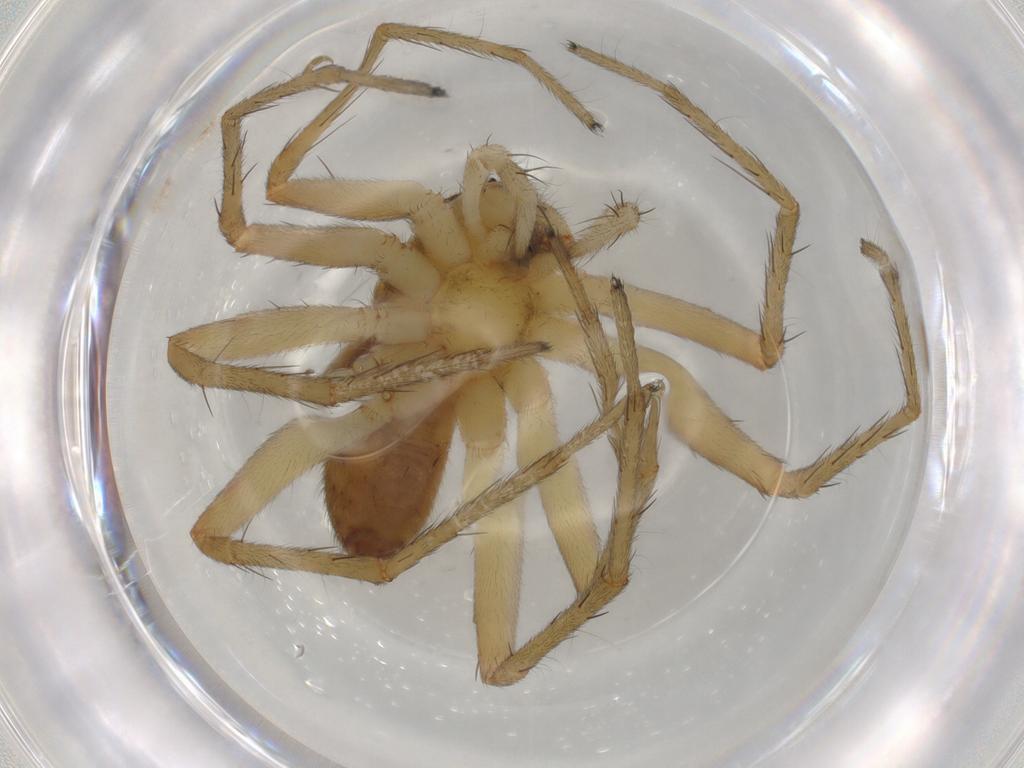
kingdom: Animalia
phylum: Arthropoda
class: Arachnida
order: Araneae
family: Pisauridae
